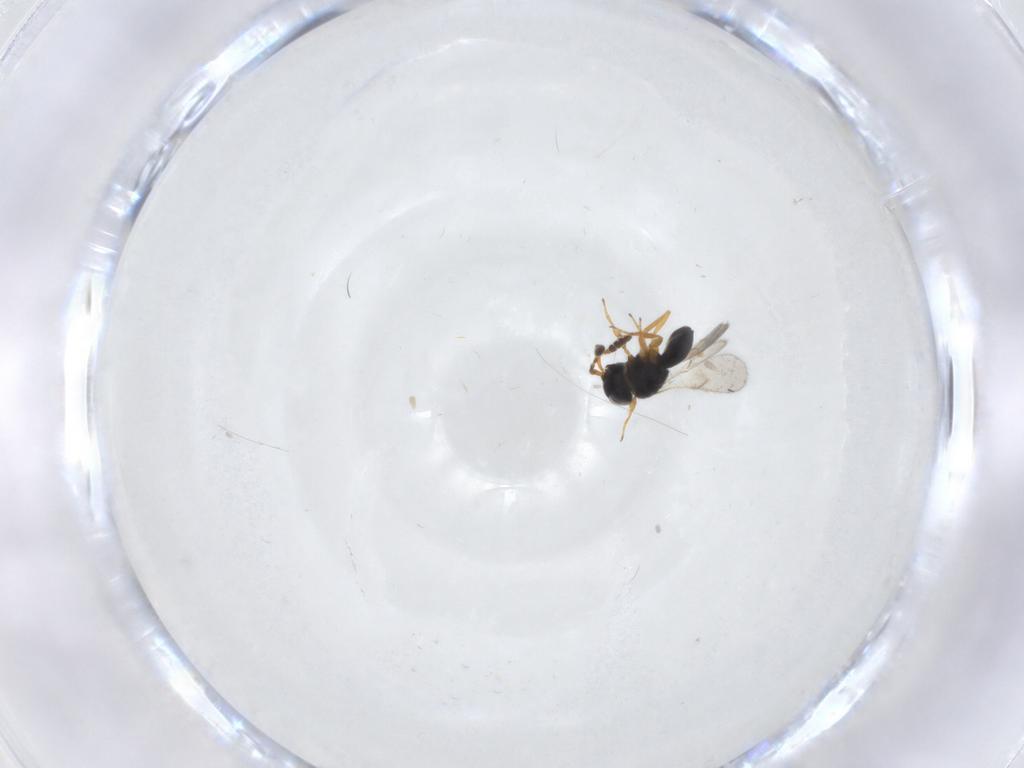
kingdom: Animalia
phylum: Arthropoda
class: Insecta
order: Hymenoptera
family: Scelionidae
